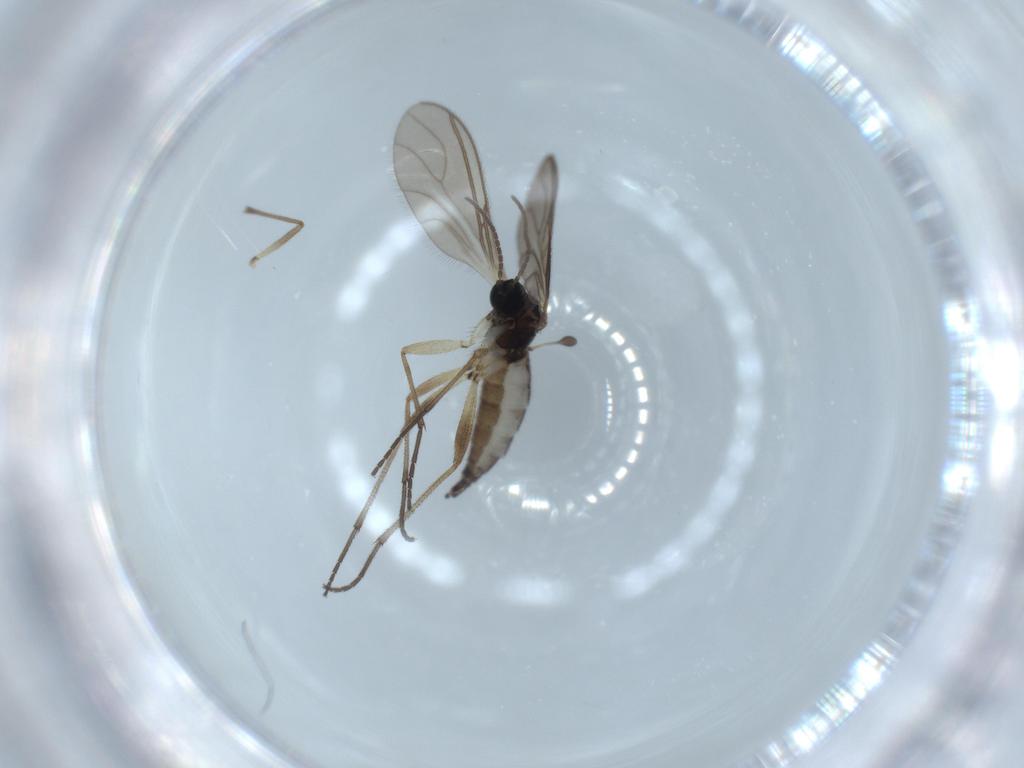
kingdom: Animalia
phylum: Arthropoda
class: Insecta
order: Diptera
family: Sciaridae
